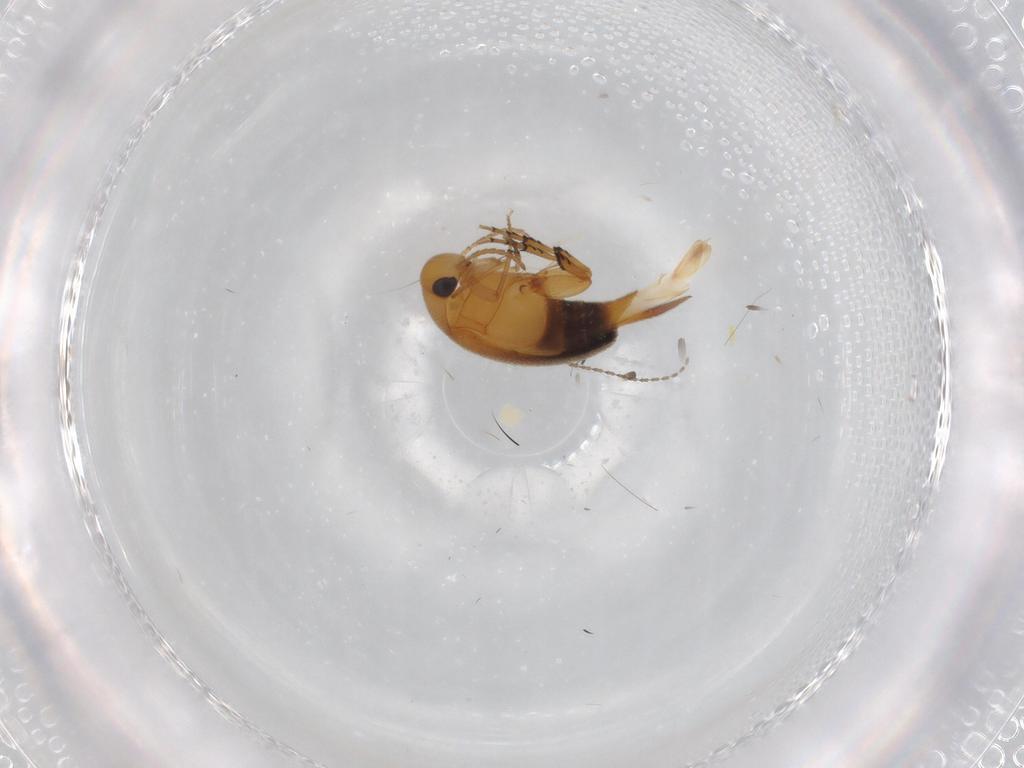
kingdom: Animalia
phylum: Arthropoda
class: Insecta
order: Coleoptera
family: Mordellidae
